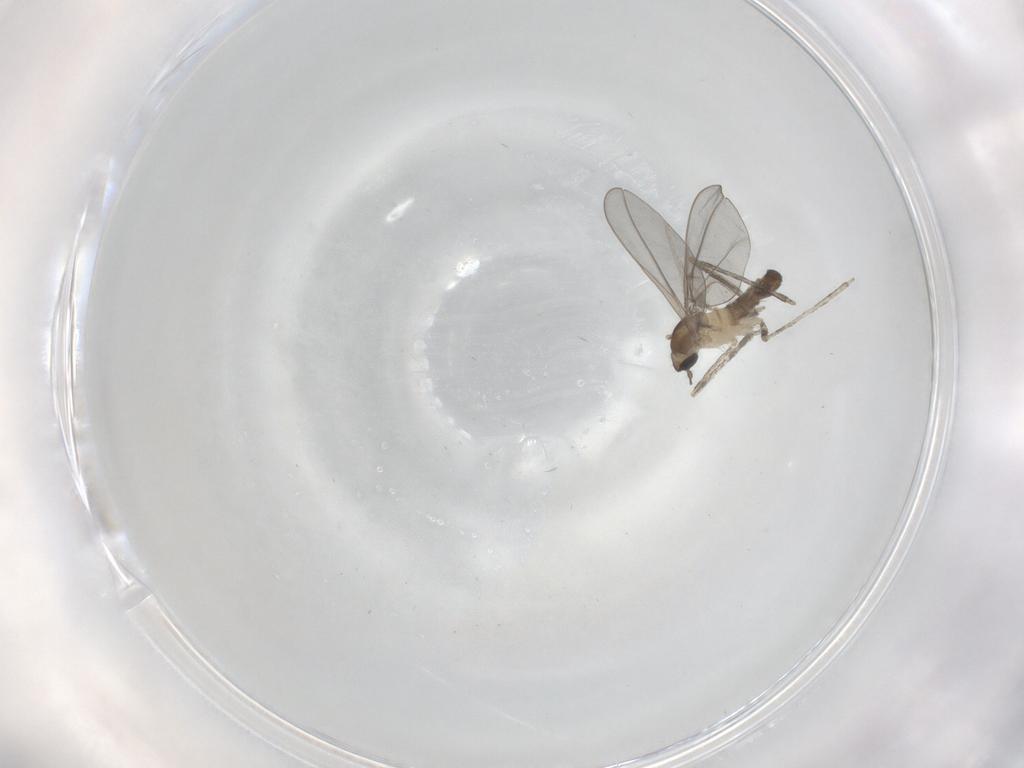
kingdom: Animalia
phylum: Arthropoda
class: Insecta
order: Diptera
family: Cecidomyiidae
